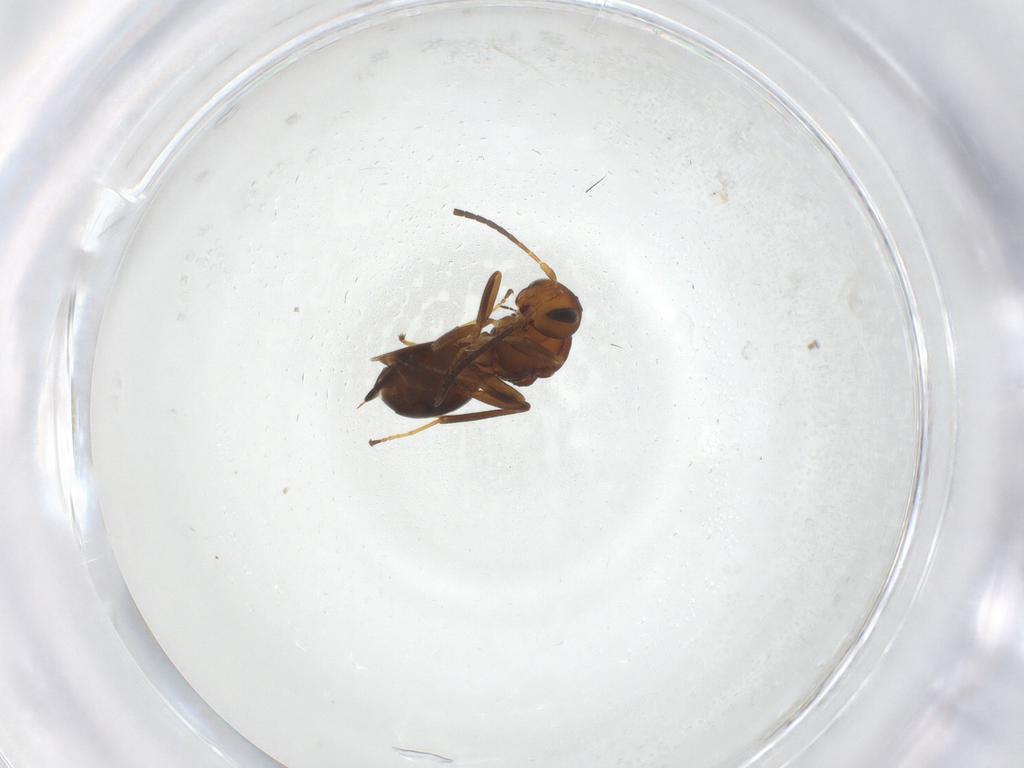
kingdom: Animalia
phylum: Arthropoda
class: Insecta
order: Hymenoptera
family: Cynipidae
